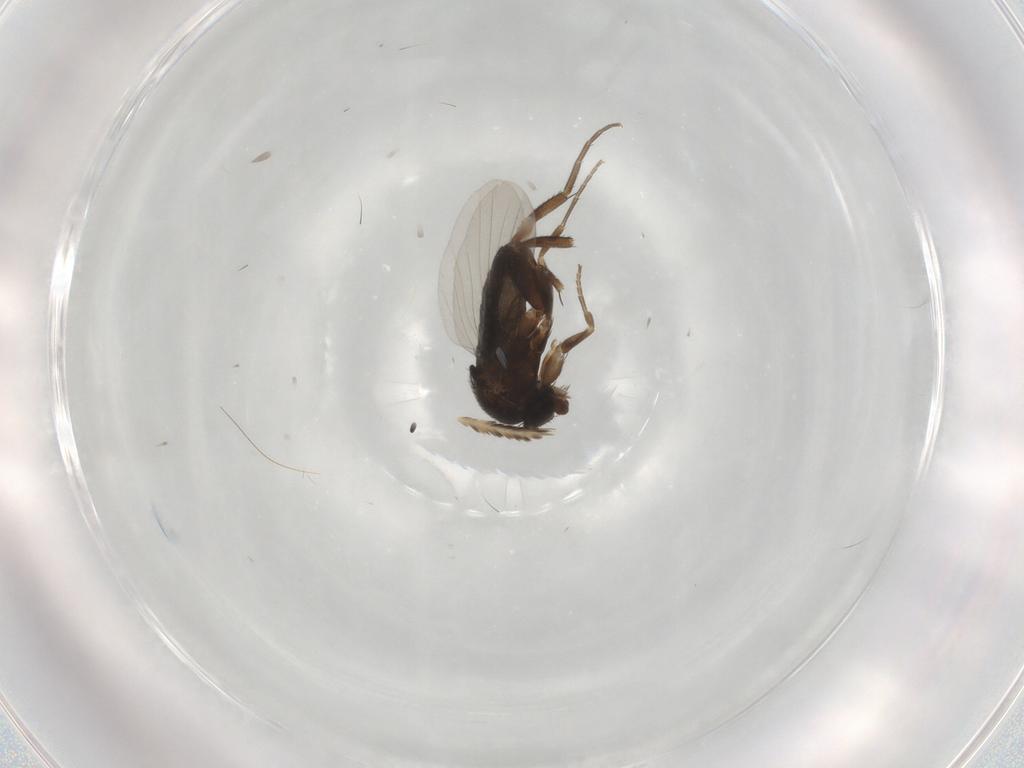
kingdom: Animalia
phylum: Arthropoda
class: Insecta
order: Diptera
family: Phoridae
